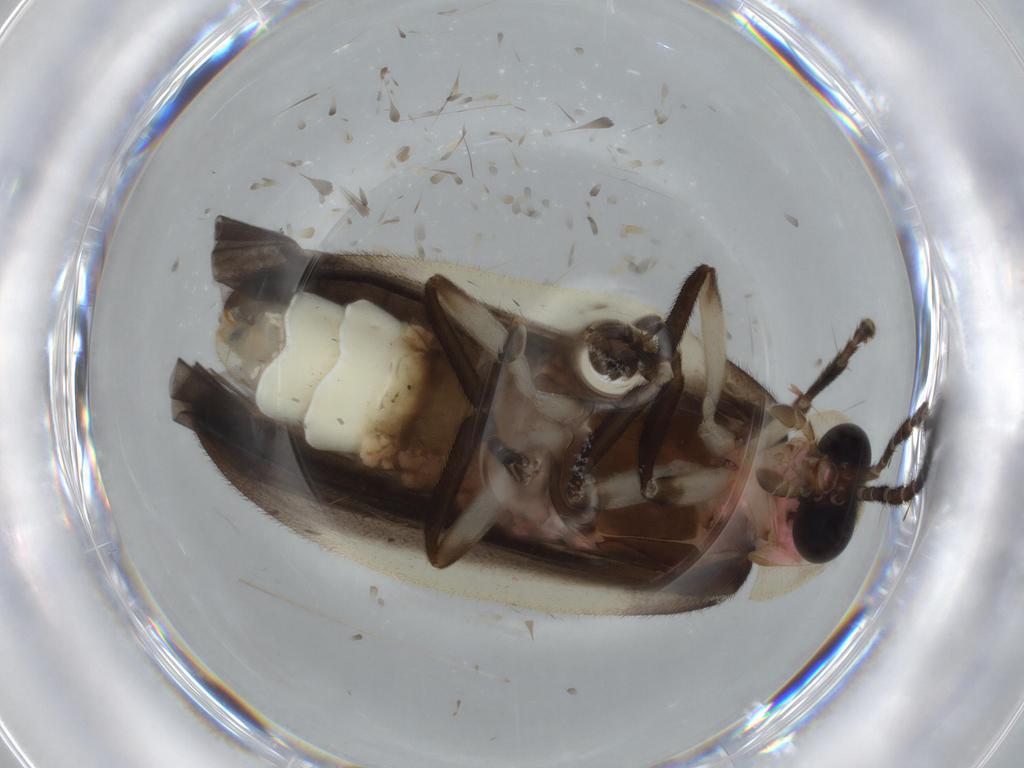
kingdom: Animalia
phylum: Arthropoda
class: Insecta
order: Coleoptera
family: Lampyridae
